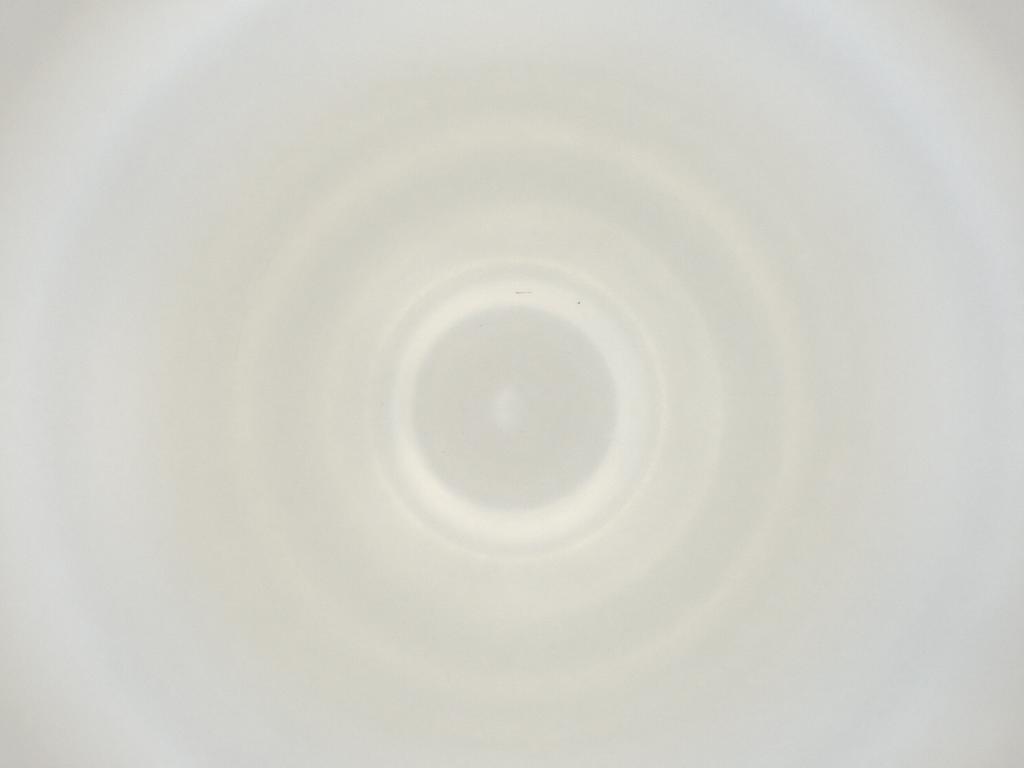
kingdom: Animalia
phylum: Arthropoda
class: Insecta
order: Diptera
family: Cecidomyiidae
